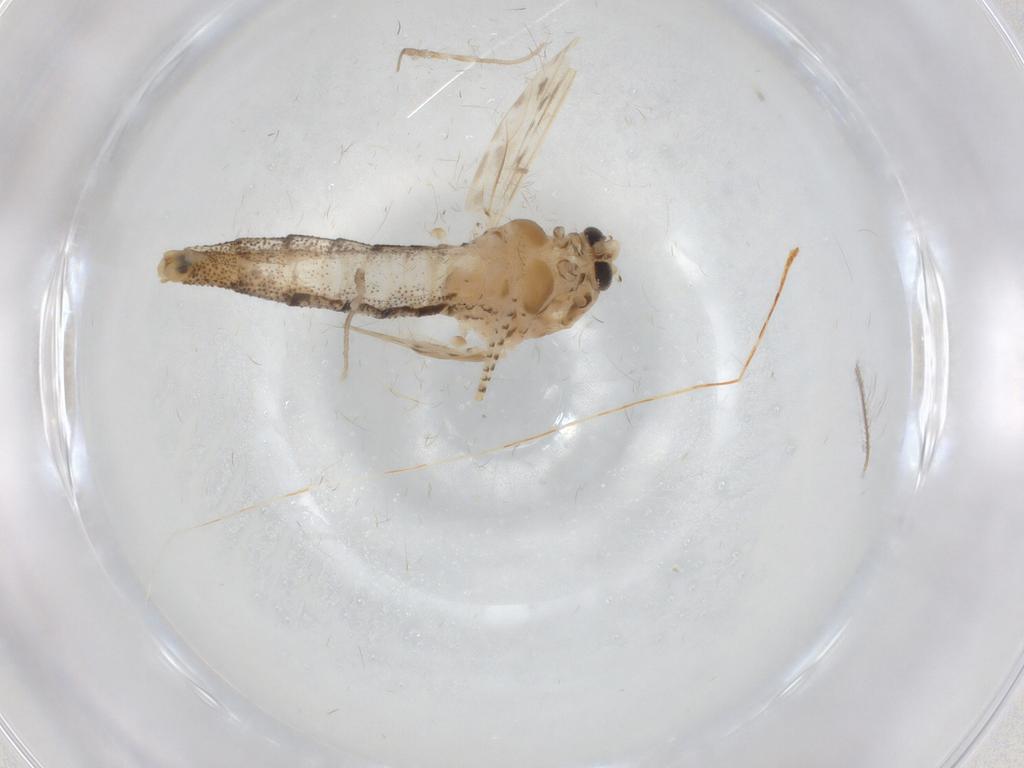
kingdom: Animalia
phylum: Arthropoda
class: Insecta
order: Diptera
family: Chaoboridae
